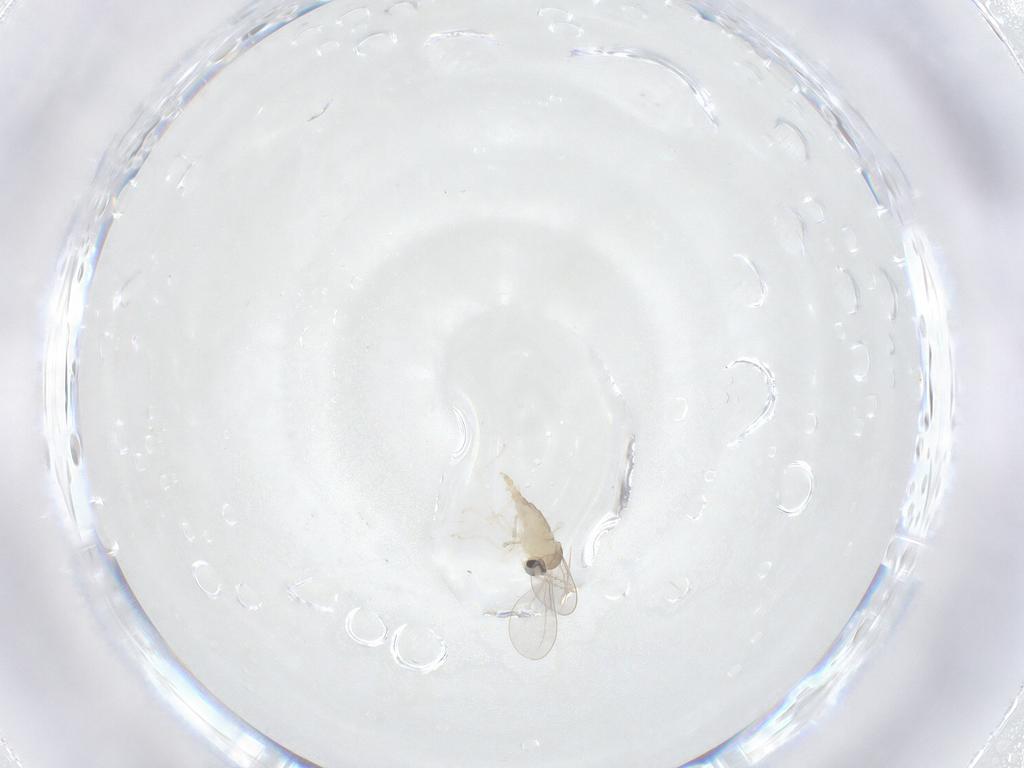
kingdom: Animalia
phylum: Arthropoda
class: Insecta
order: Diptera
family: Cecidomyiidae
